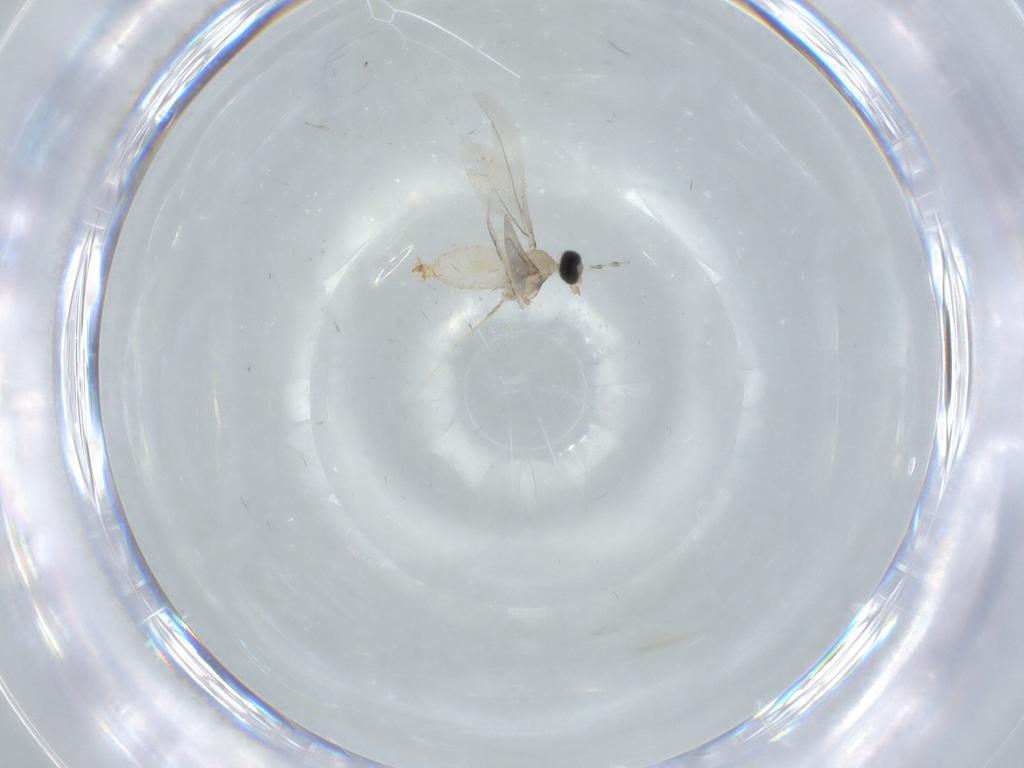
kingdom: Animalia
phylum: Arthropoda
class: Insecta
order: Diptera
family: Cecidomyiidae
